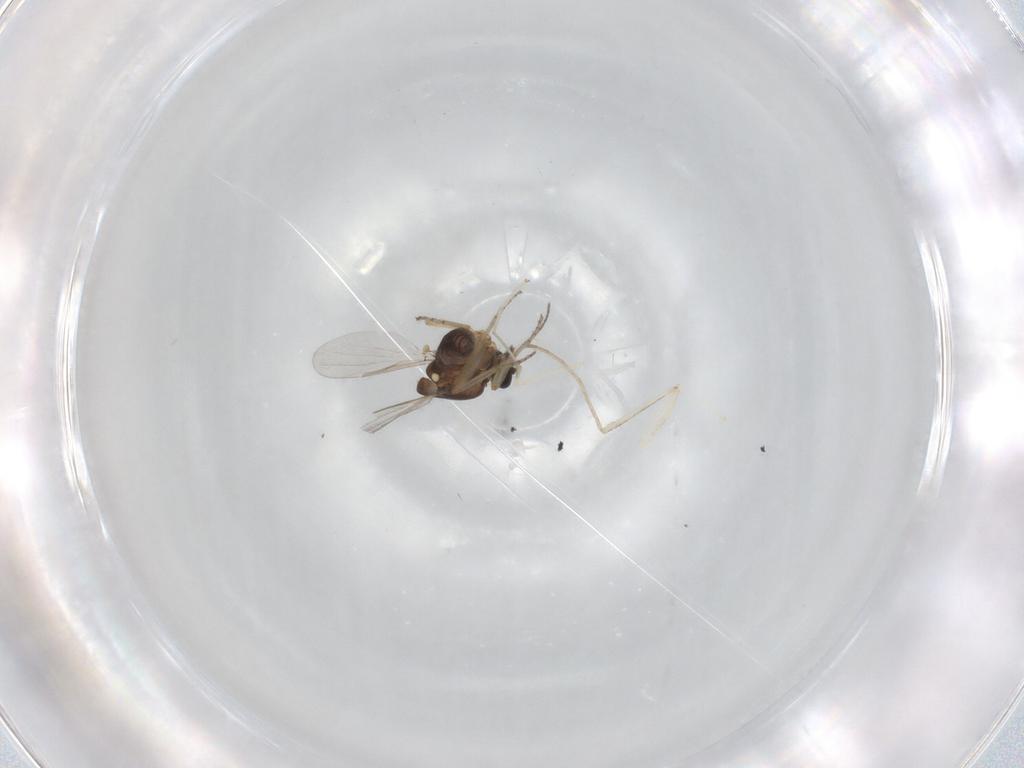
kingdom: Animalia
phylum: Arthropoda
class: Insecta
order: Diptera
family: Ceratopogonidae
